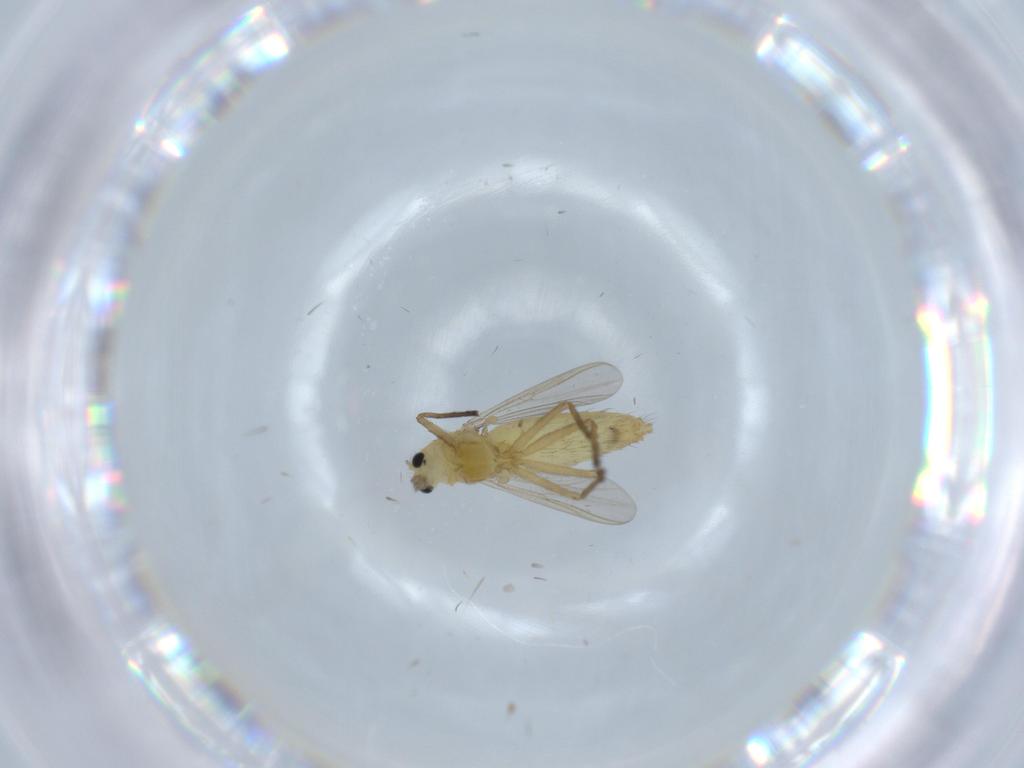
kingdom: Animalia
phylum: Arthropoda
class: Insecta
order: Diptera
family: Chironomidae
